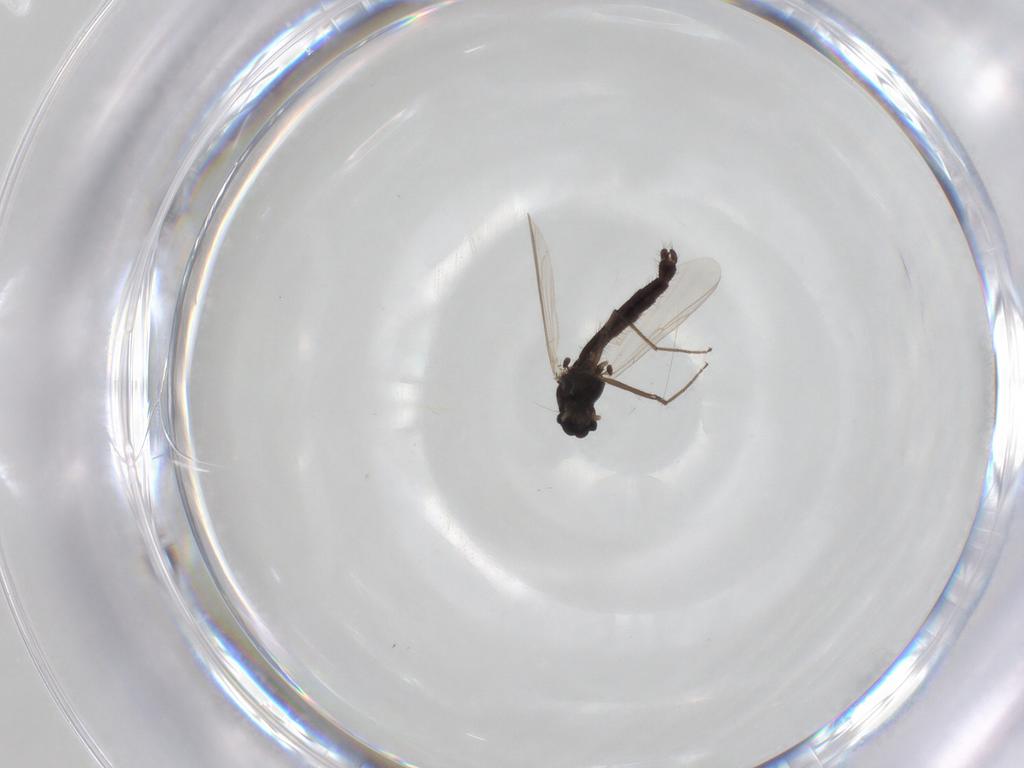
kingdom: Animalia
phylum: Arthropoda
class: Insecta
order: Diptera
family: Chironomidae
